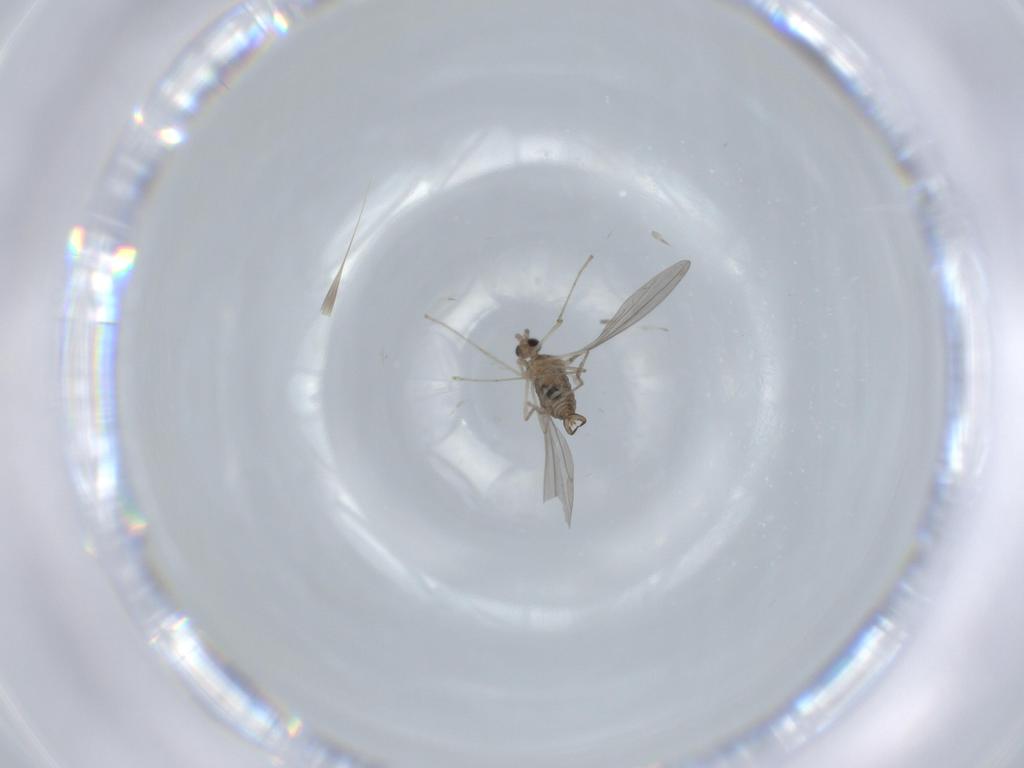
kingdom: Animalia
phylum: Arthropoda
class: Insecta
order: Diptera
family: Cecidomyiidae
